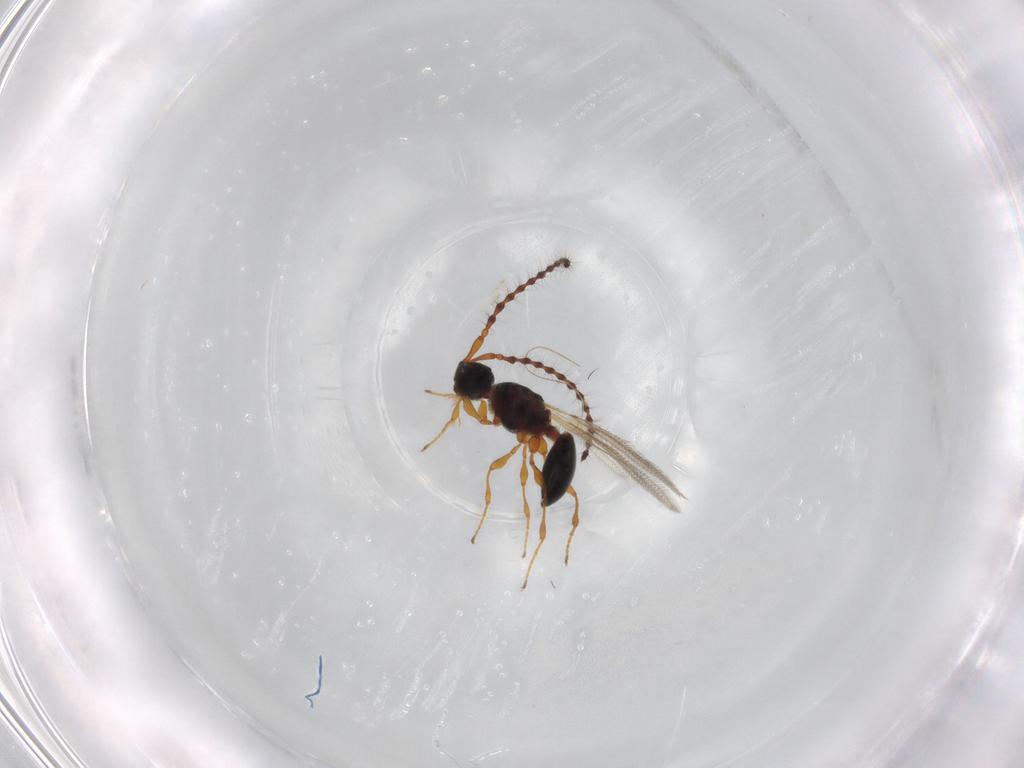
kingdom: Animalia
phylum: Arthropoda
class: Insecta
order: Hymenoptera
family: Diapriidae
